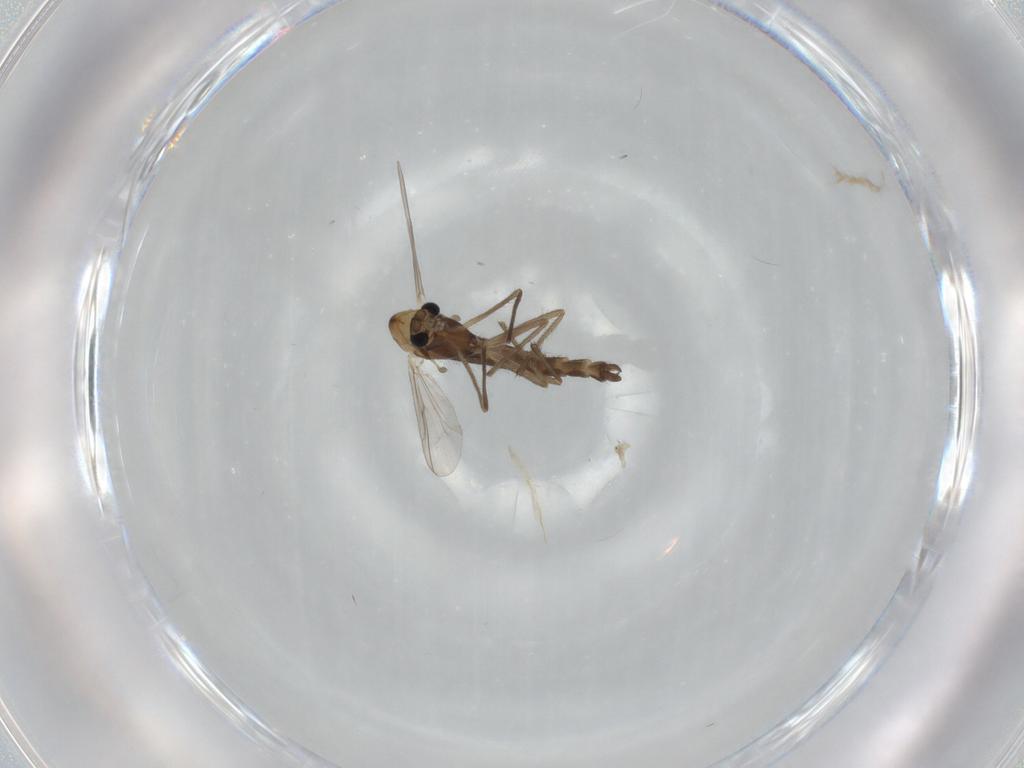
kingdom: Animalia
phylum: Arthropoda
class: Insecta
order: Diptera
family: Chironomidae
